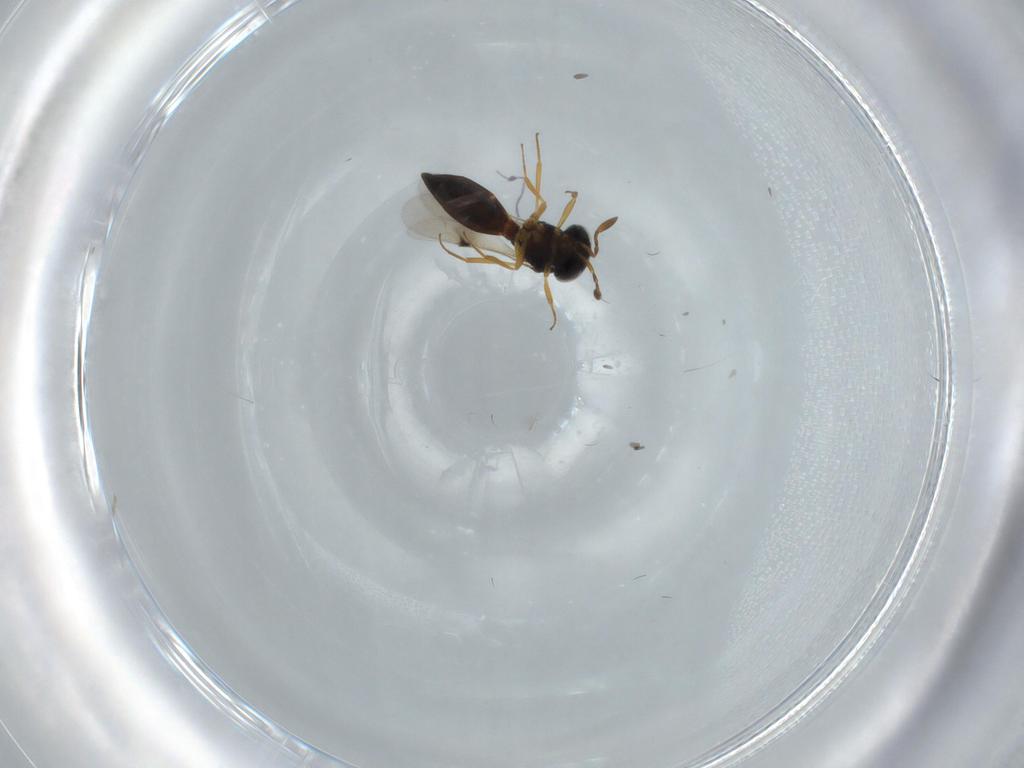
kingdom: Animalia
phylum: Arthropoda
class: Insecta
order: Hymenoptera
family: Scelionidae
